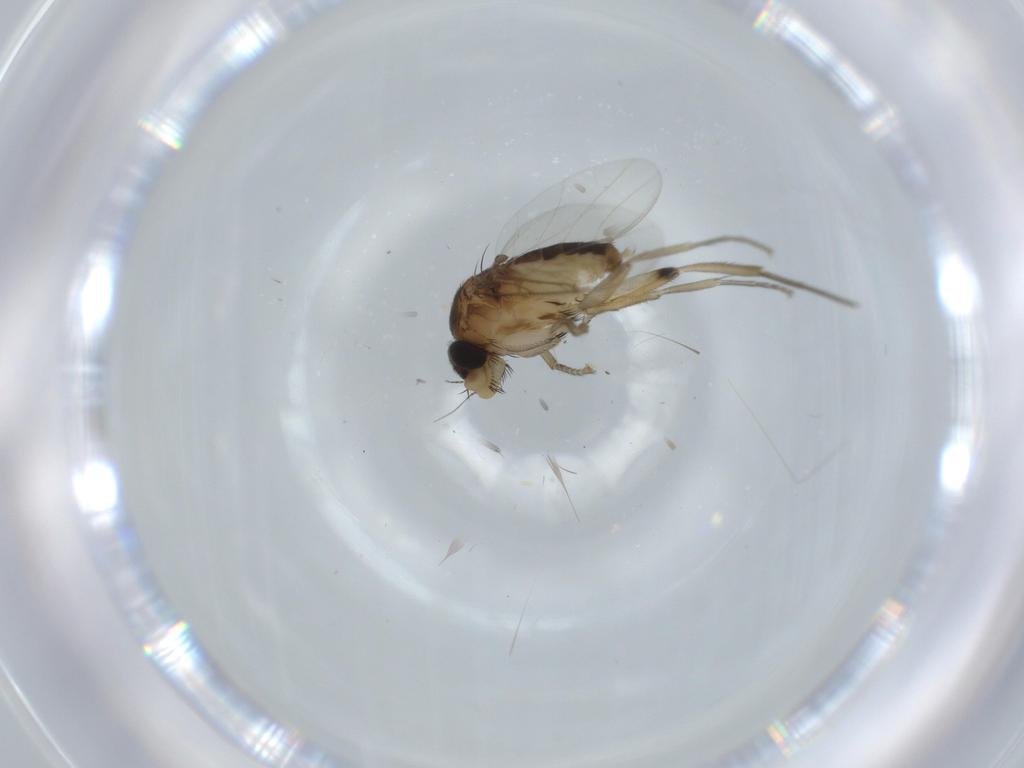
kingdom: Animalia
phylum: Arthropoda
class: Insecta
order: Diptera
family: Phoridae
